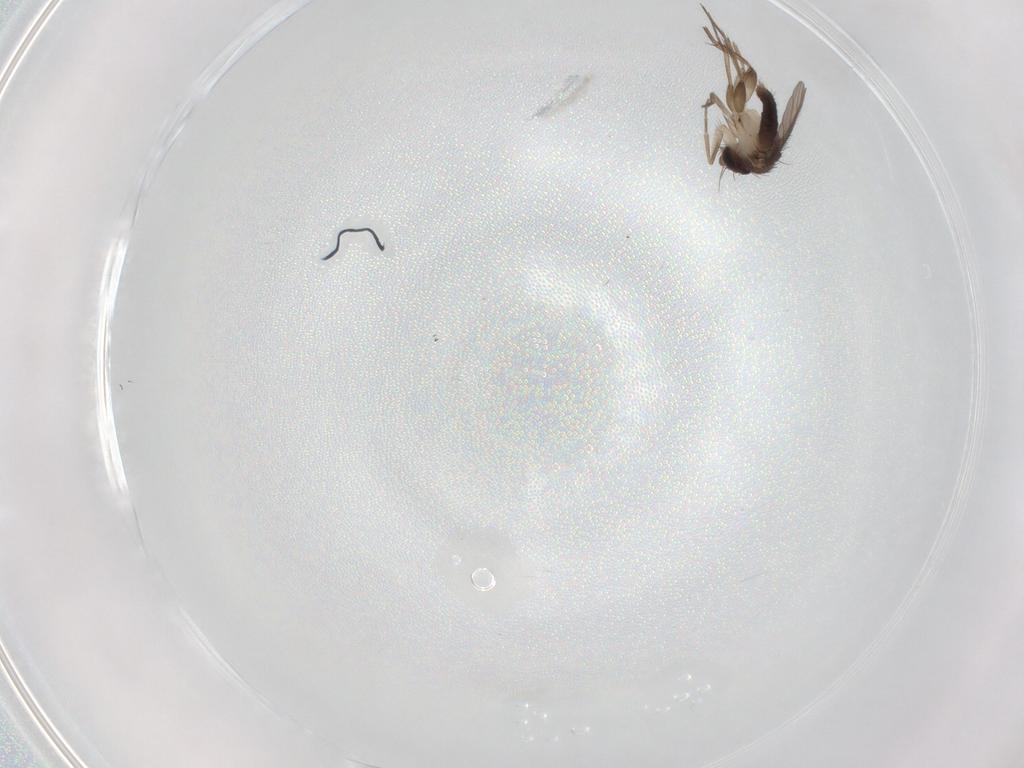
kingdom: Animalia
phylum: Arthropoda
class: Insecta
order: Diptera
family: Phoridae
